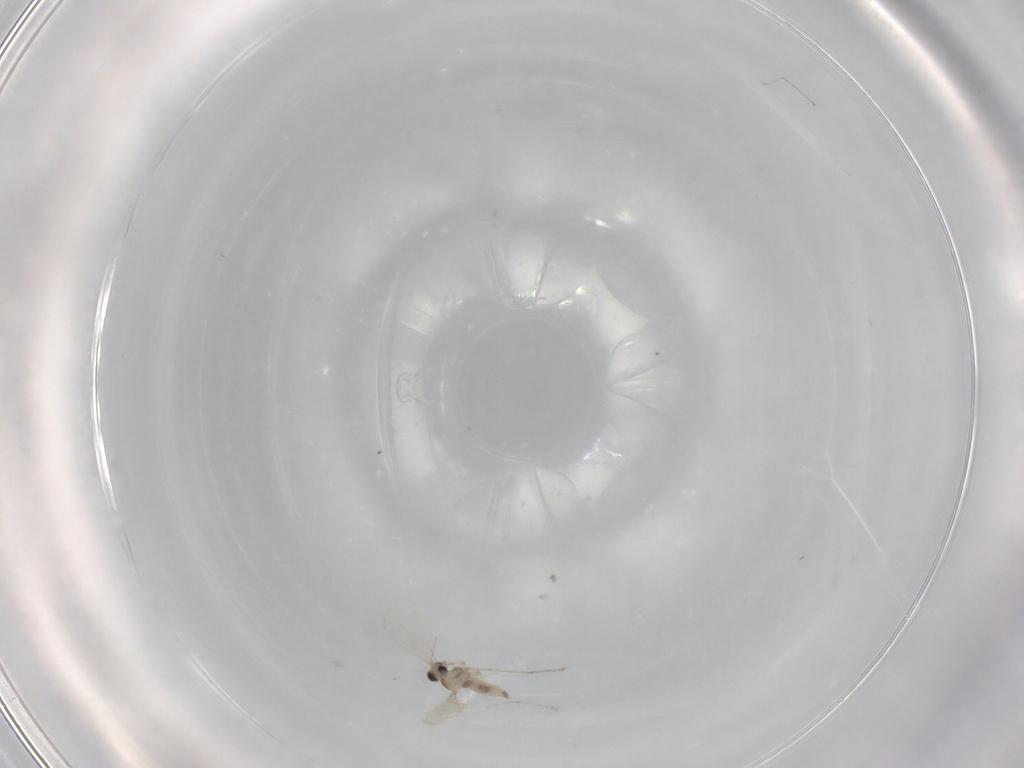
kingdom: Animalia
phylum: Arthropoda
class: Insecta
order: Diptera
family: Cecidomyiidae
